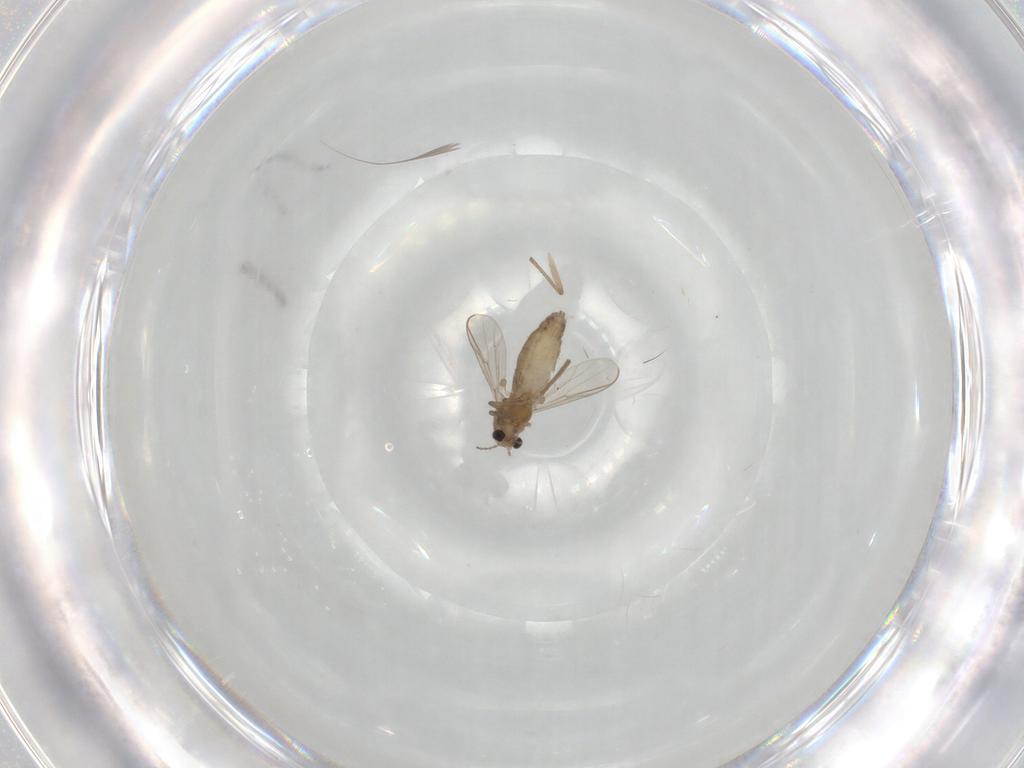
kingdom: Animalia
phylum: Arthropoda
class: Insecta
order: Diptera
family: Chironomidae
